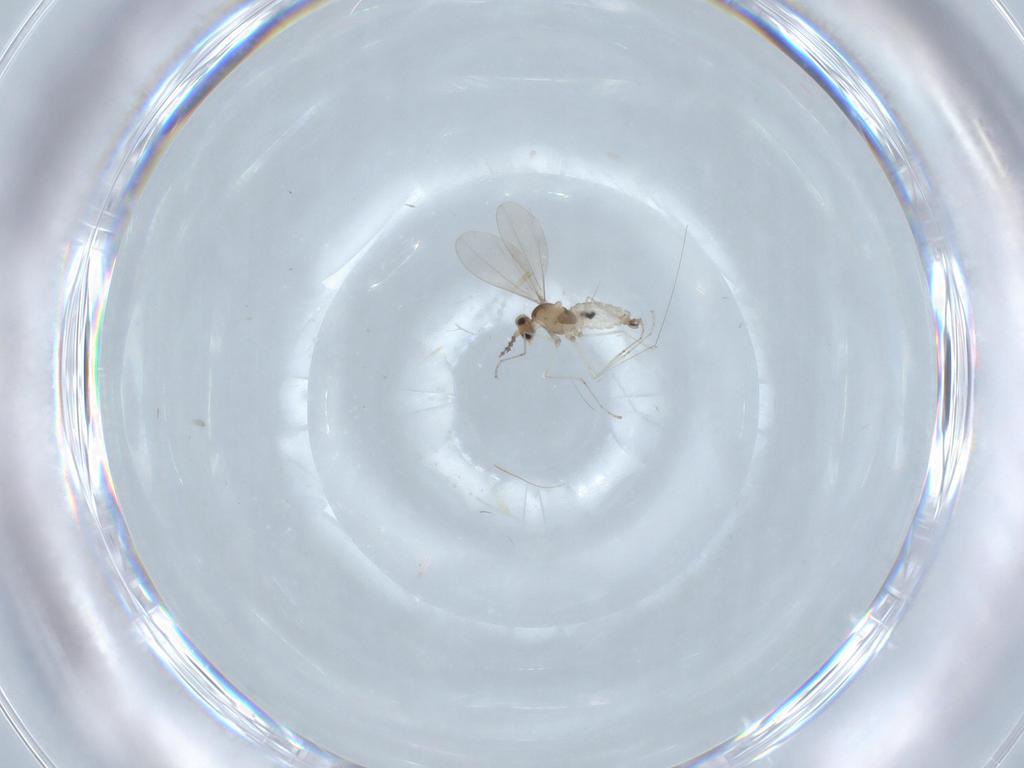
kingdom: Animalia
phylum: Arthropoda
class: Insecta
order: Diptera
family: Cecidomyiidae
